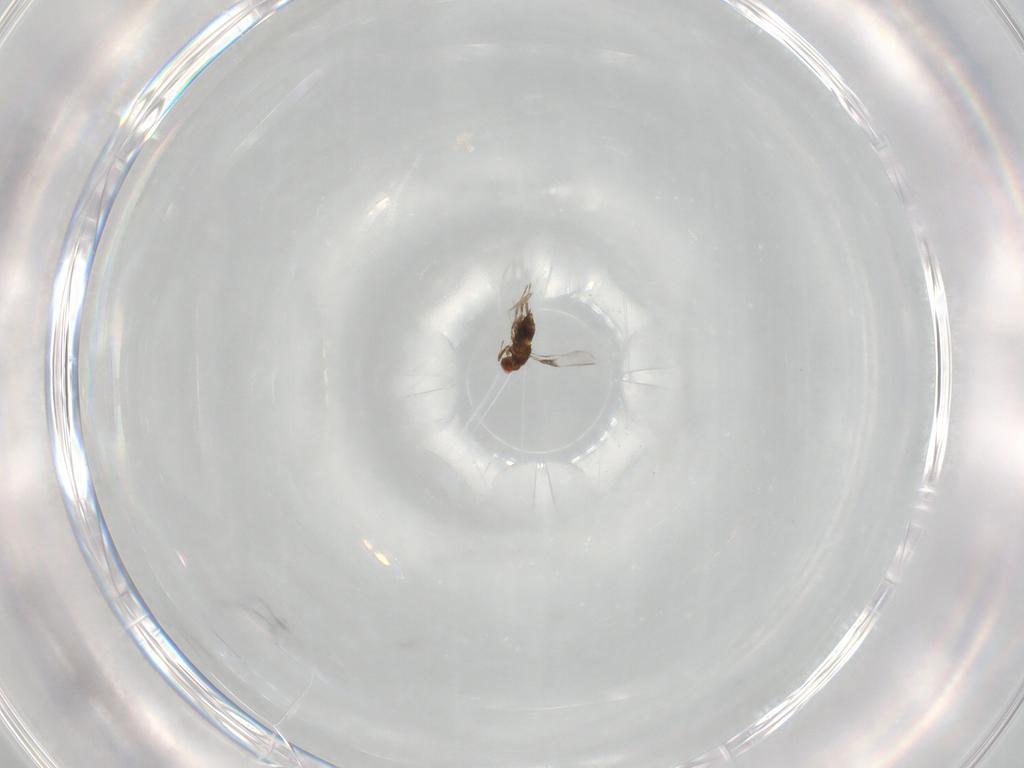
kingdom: Animalia
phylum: Arthropoda
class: Insecta
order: Hymenoptera
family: Trichogrammatidae
